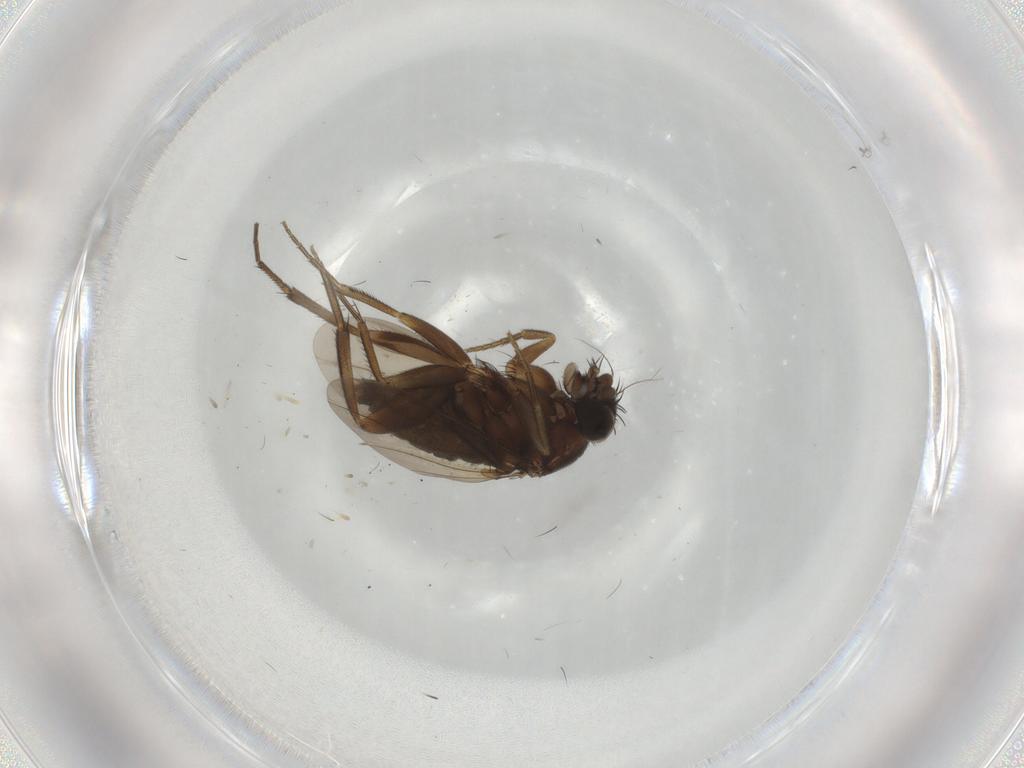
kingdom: Animalia
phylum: Arthropoda
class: Insecta
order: Diptera
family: Phoridae
